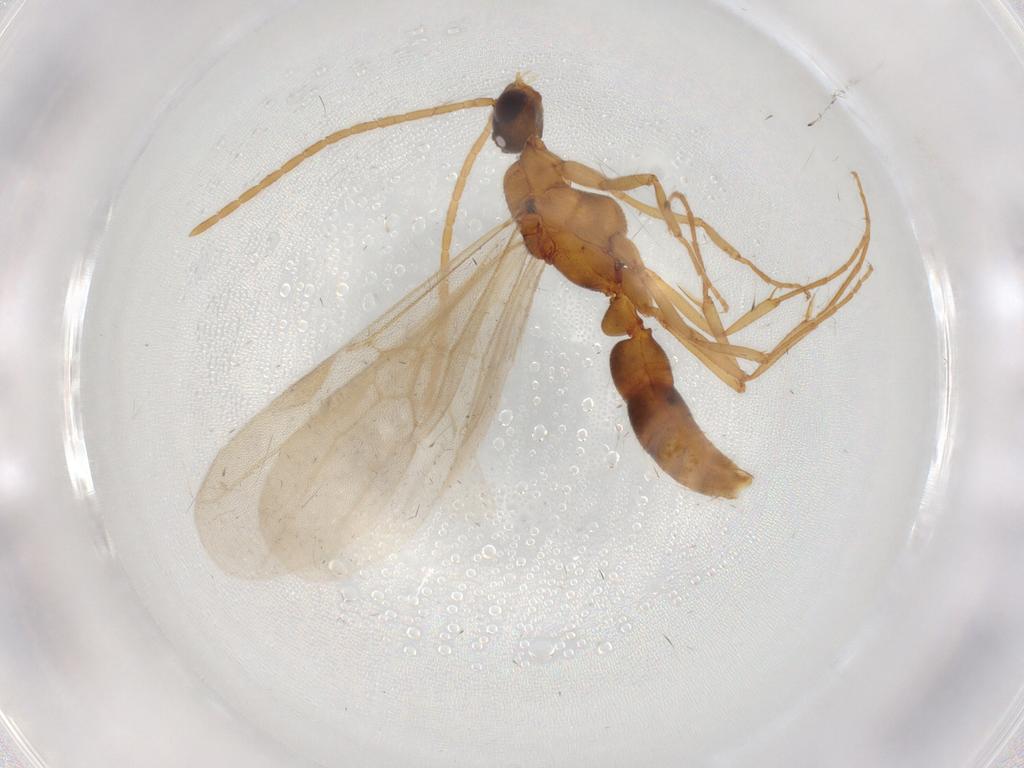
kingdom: Animalia
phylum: Arthropoda
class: Insecta
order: Hymenoptera
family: Formicidae
